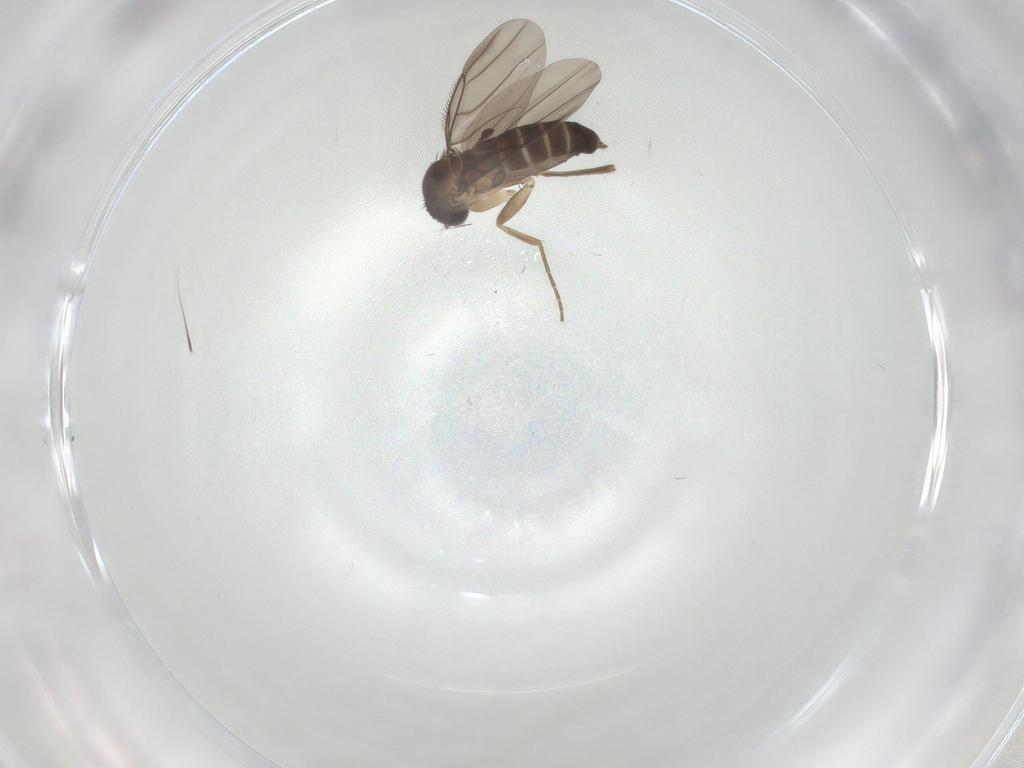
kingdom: Animalia
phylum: Arthropoda
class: Insecta
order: Diptera
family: Phoridae
